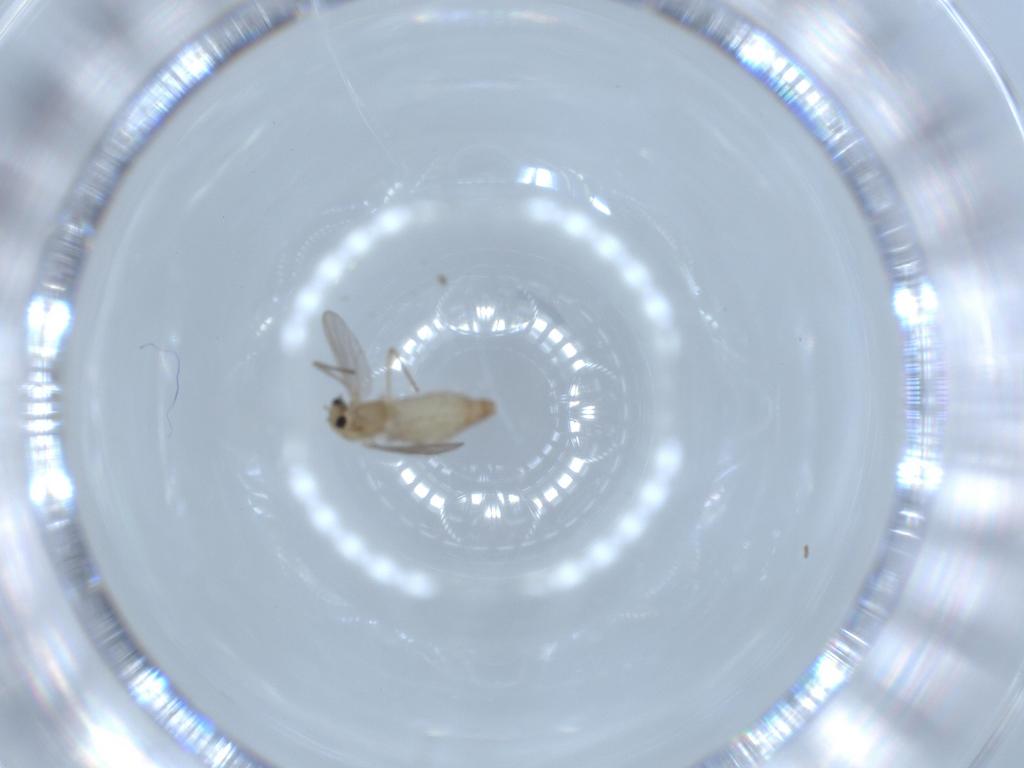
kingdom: Animalia
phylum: Arthropoda
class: Insecta
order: Diptera
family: Chironomidae
